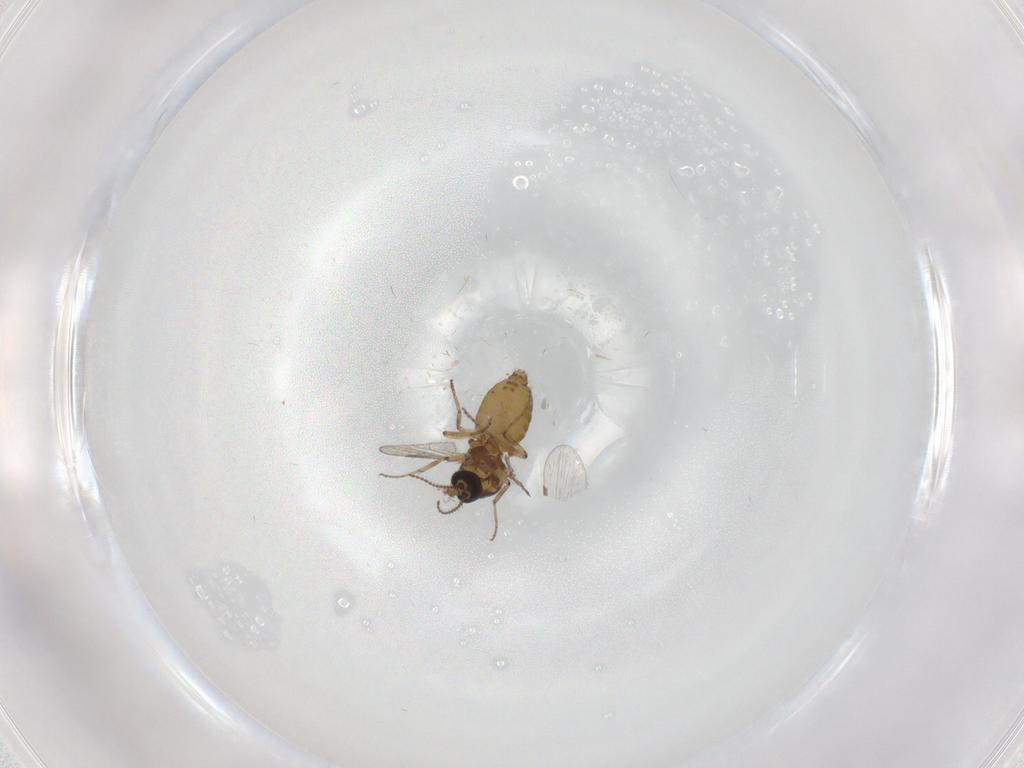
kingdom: Animalia
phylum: Arthropoda
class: Insecta
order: Diptera
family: Ceratopogonidae
